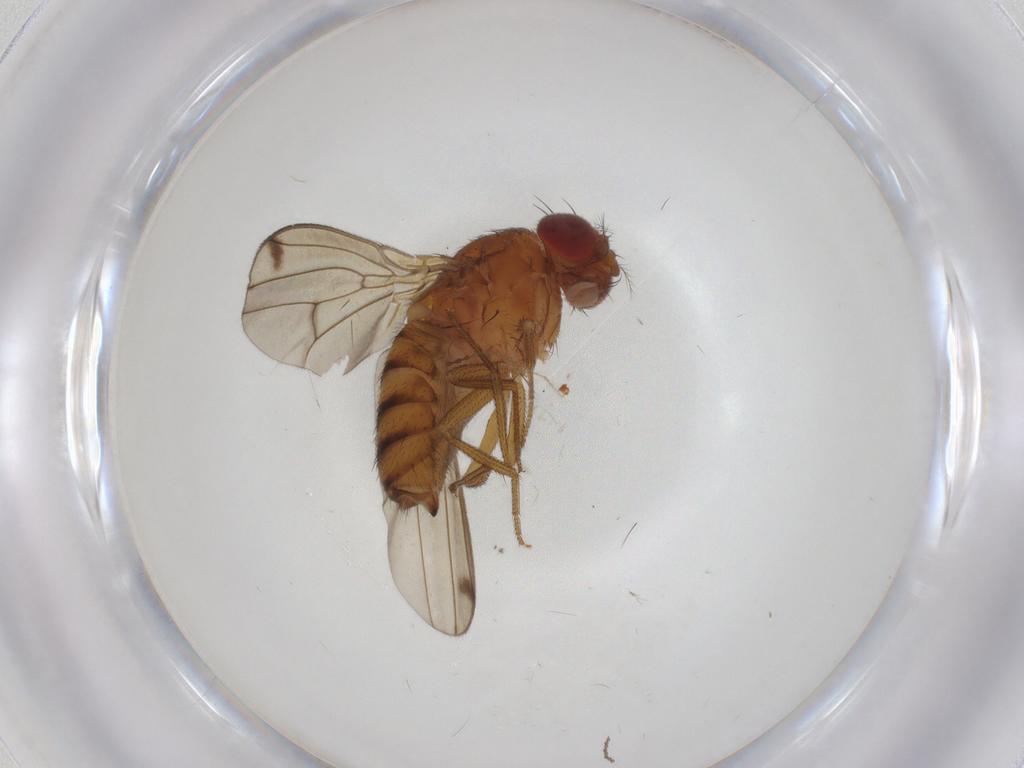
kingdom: Animalia
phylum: Arthropoda
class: Insecta
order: Diptera
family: Drosophilidae
